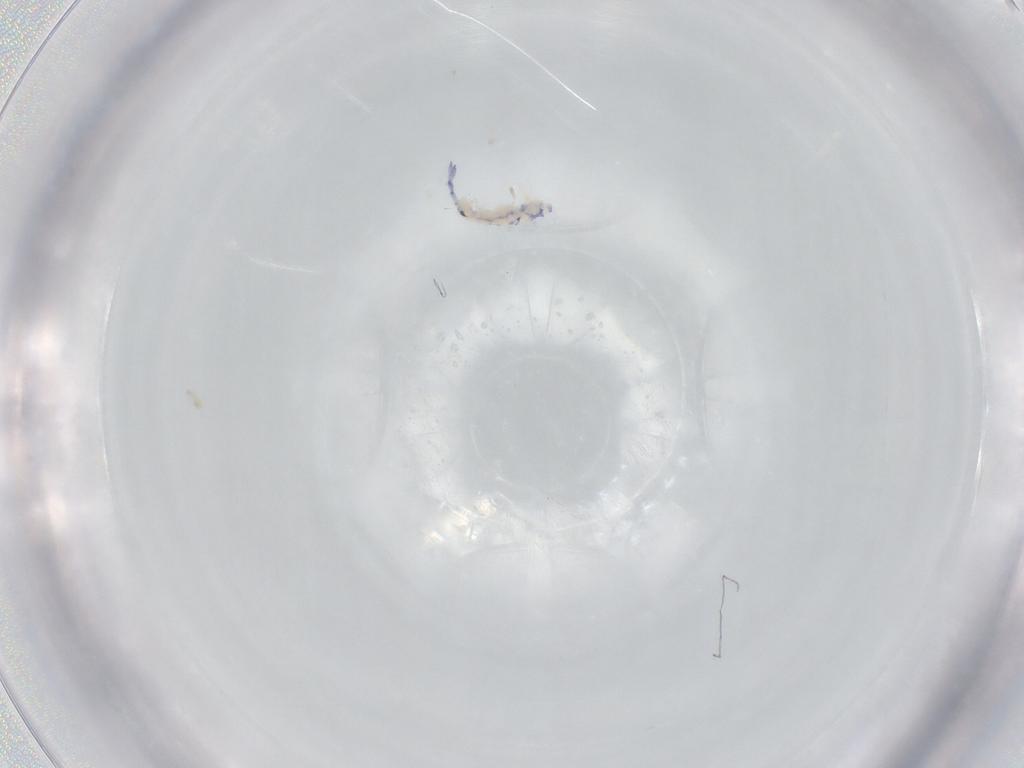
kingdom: Animalia
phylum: Arthropoda
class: Collembola
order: Entomobryomorpha
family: Entomobryidae
